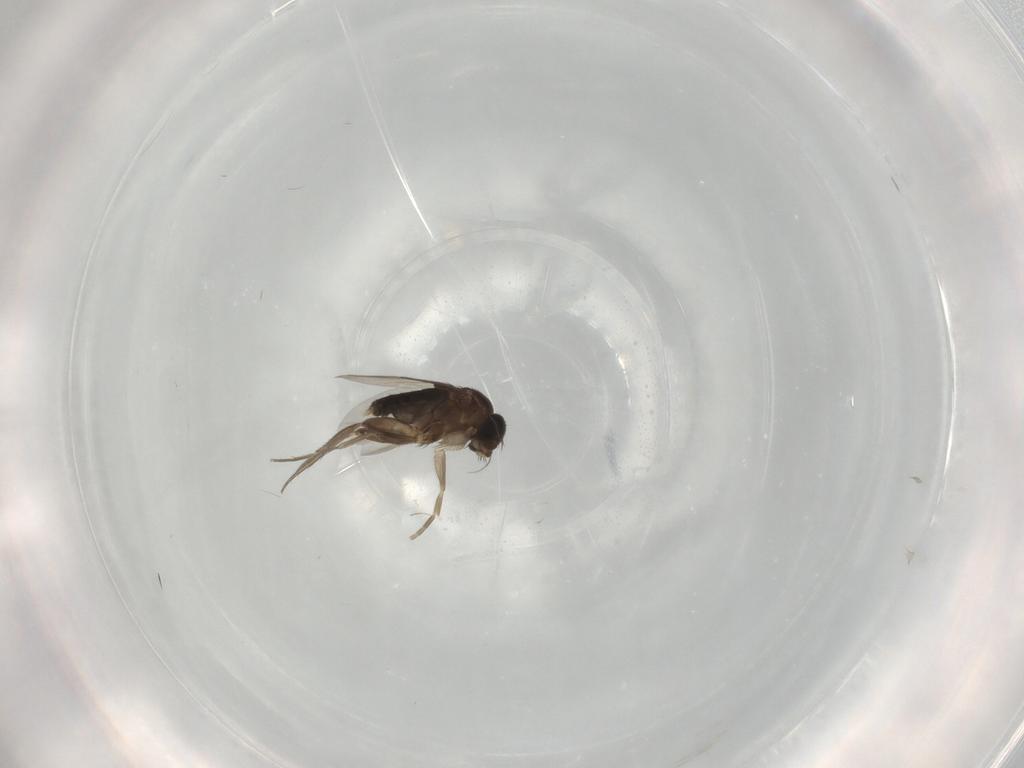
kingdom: Animalia
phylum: Arthropoda
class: Insecta
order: Diptera
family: Phoridae
